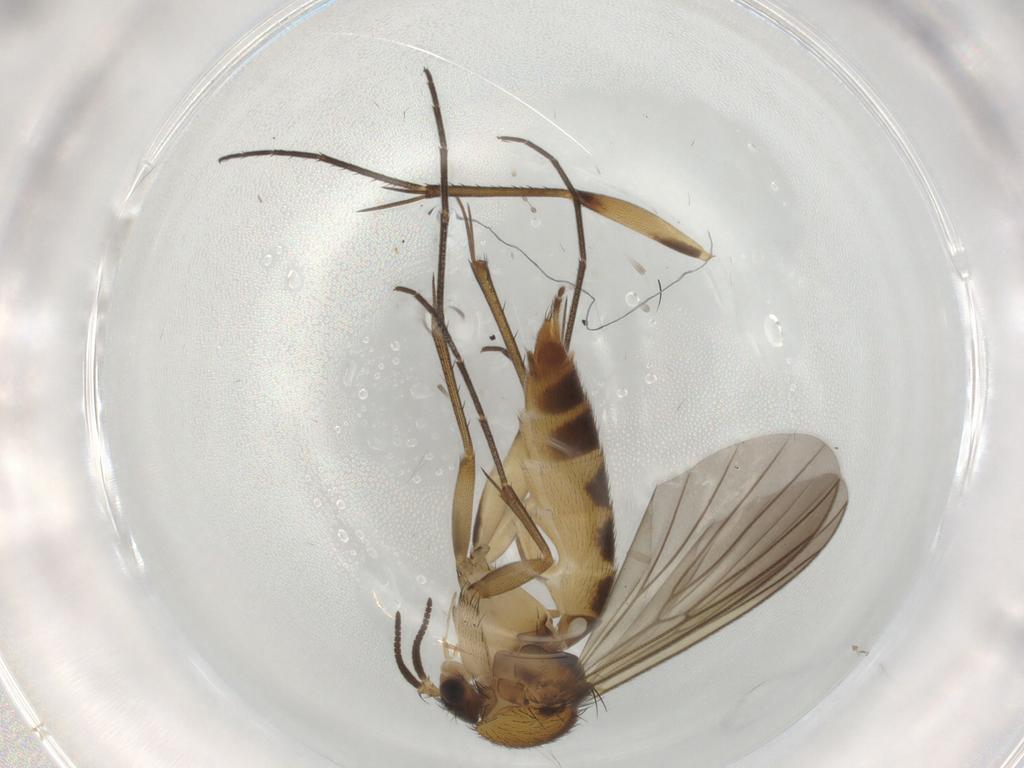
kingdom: Animalia
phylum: Arthropoda
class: Insecta
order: Diptera
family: Mycetophilidae
